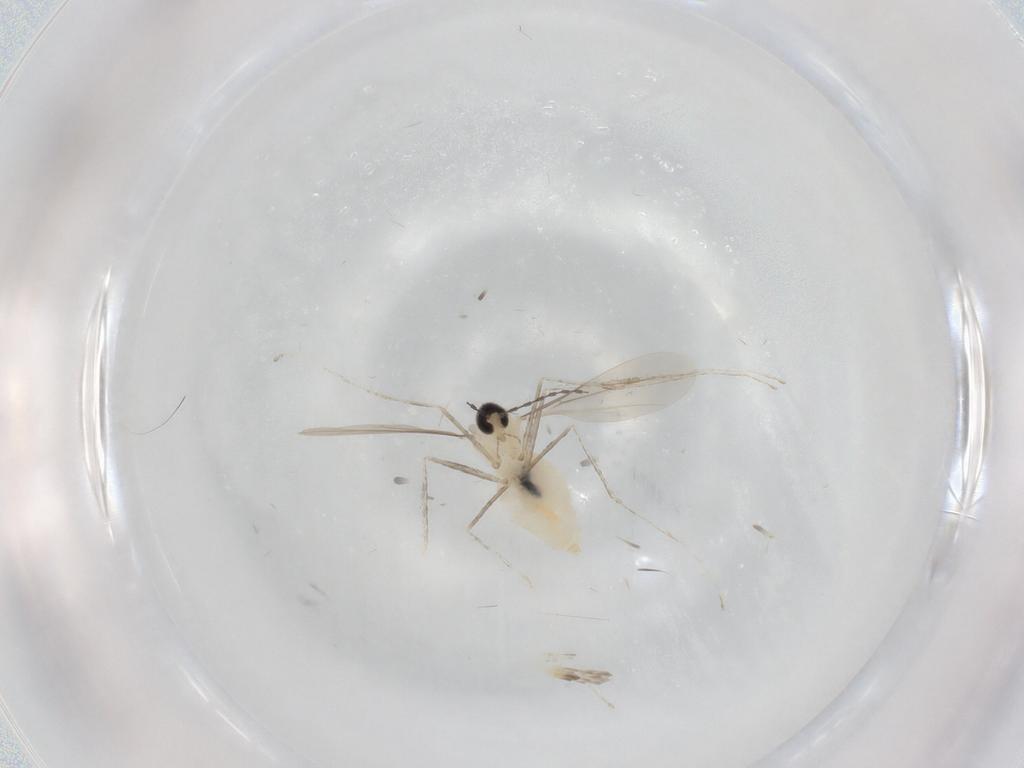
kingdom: Animalia
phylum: Arthropoda
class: Insecta
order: Diptera
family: Cecidomyiidae
